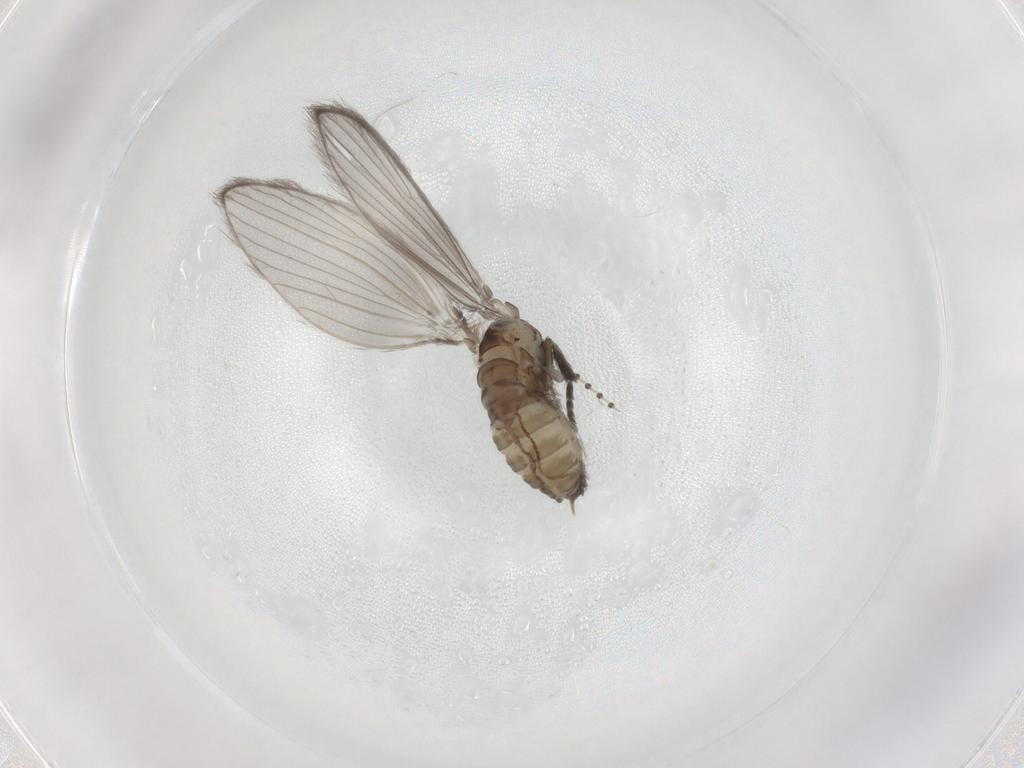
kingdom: Animalia
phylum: Arthropoda
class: Insecta
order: Diptera
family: Psychodidae
